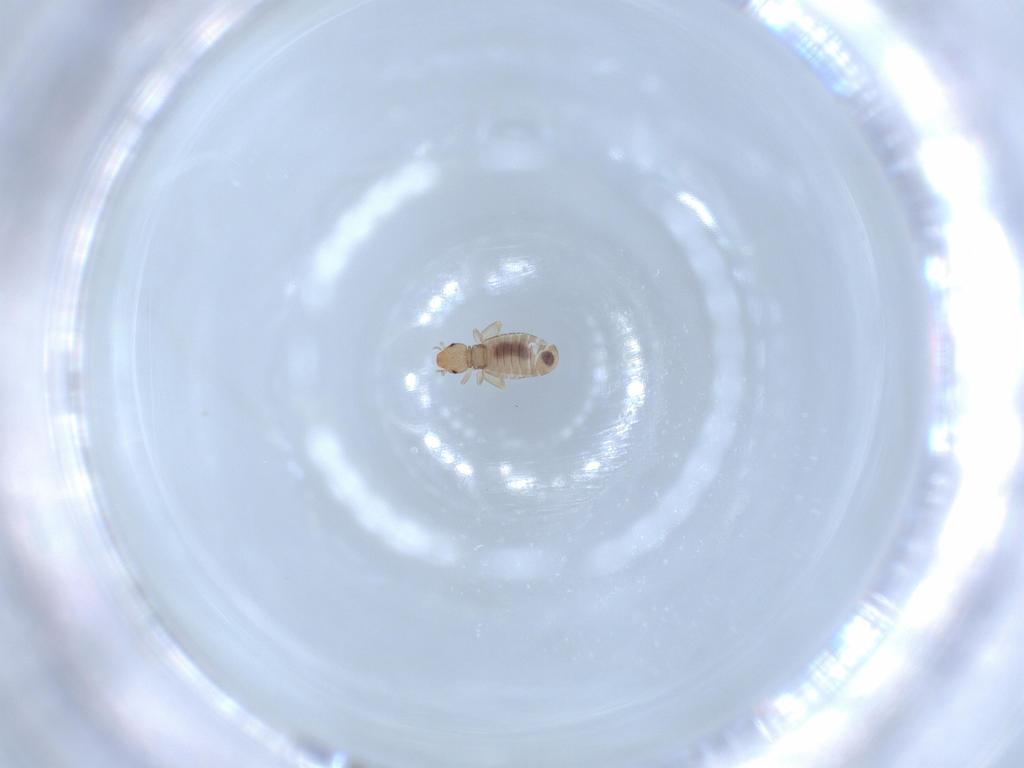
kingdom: Animalia
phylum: Arthropoda
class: Insecta
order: Psocodea
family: Liposcelididae
